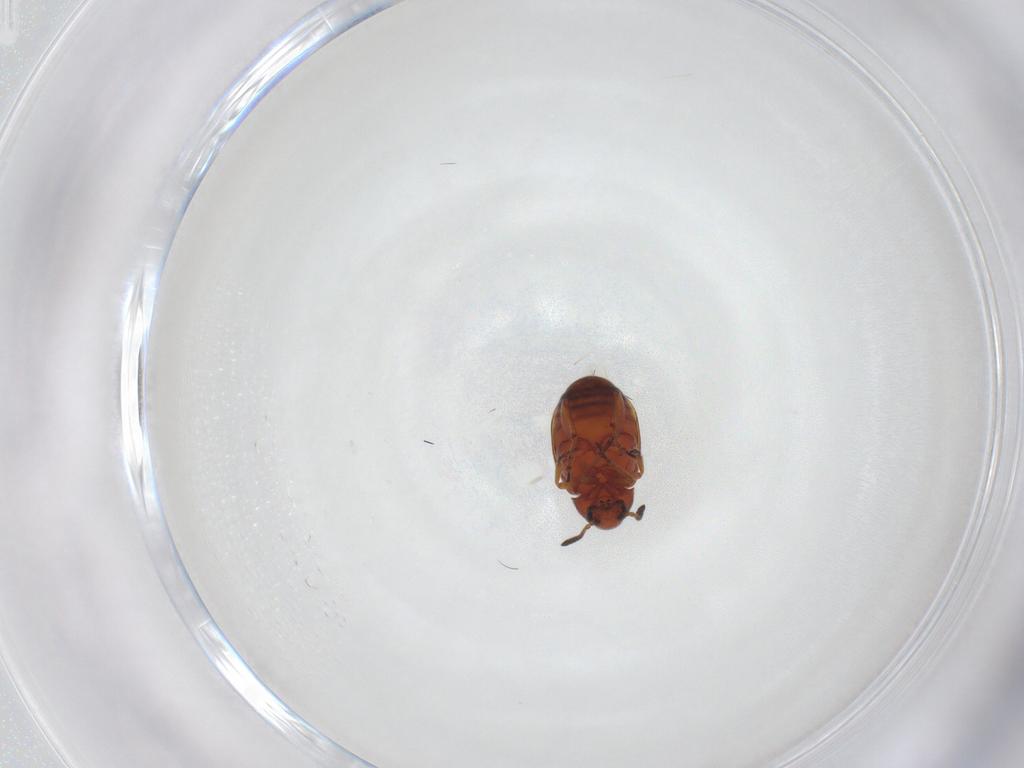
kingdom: Animalia
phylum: Arthropoda
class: Insecta
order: Coleoptera
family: Chrysomelidae
